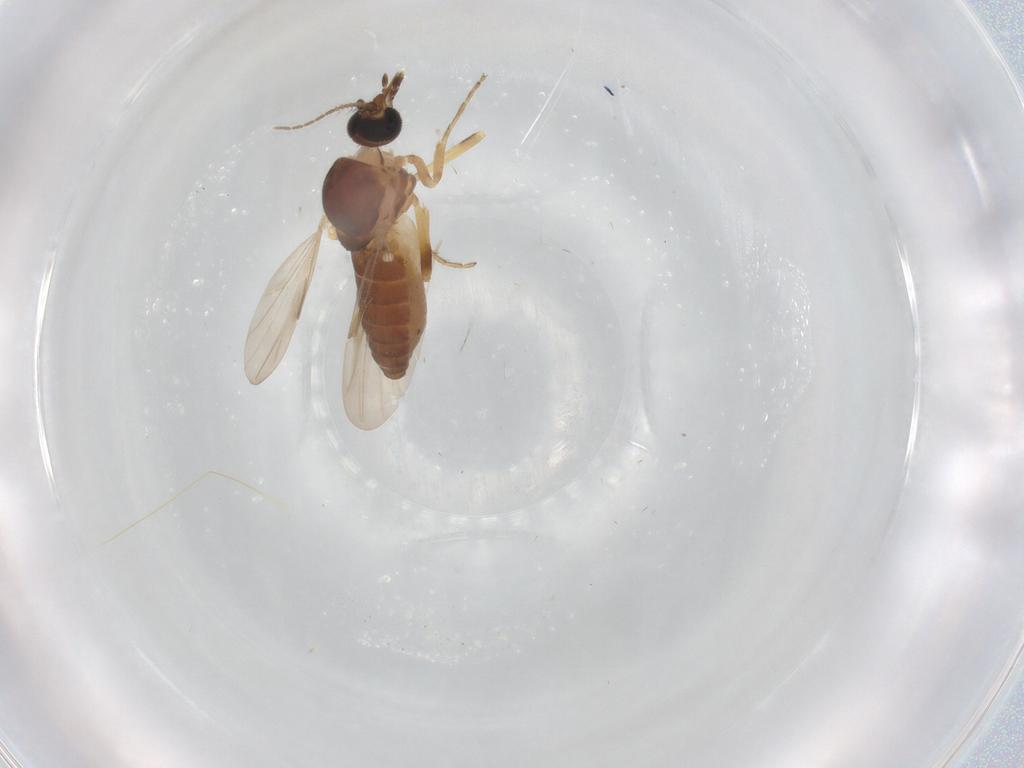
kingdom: Animalia
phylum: Arthropoda
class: Insecta
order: Diptera
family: Ceratopogonidae
